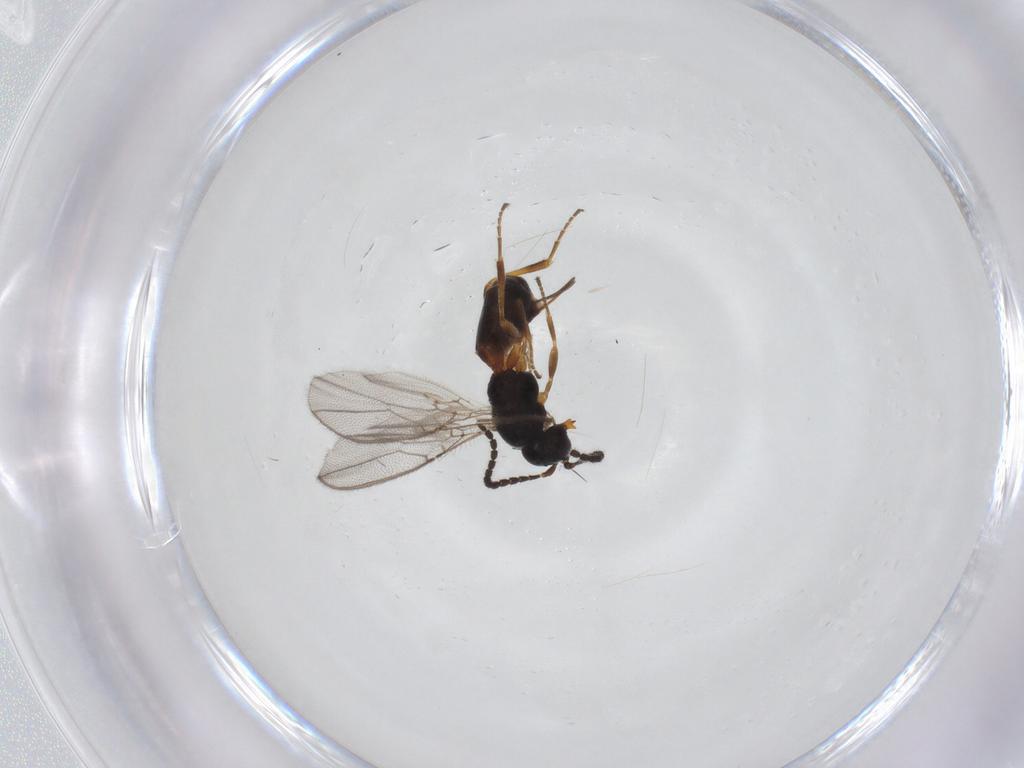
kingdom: Animalia
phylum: Arthropoda
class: Insecta
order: Hymenoptera
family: Braconidae
